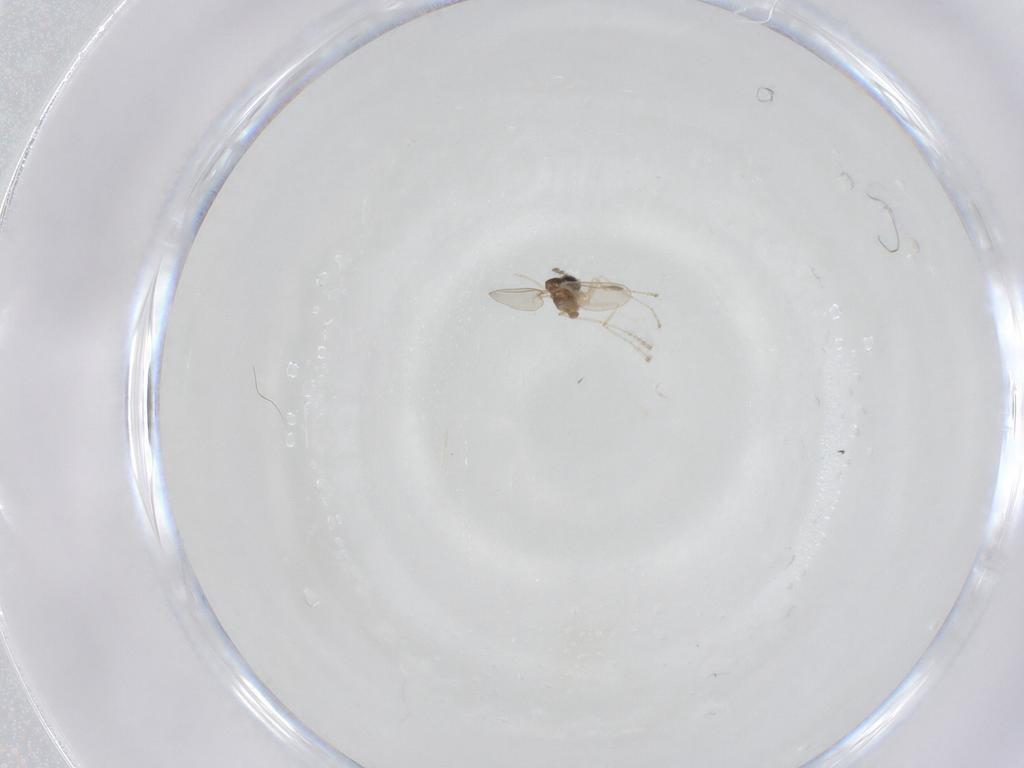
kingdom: Animalia
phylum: Arthropoda
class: Insecta
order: Diptera
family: Cecidomyiidae
